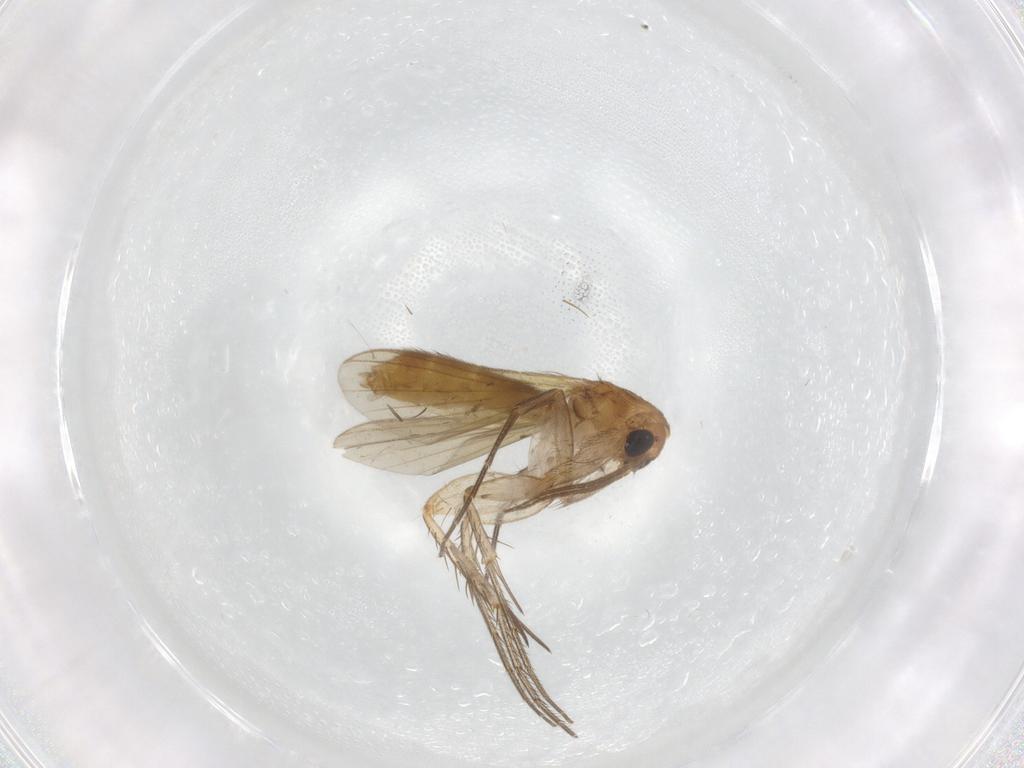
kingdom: Animalia
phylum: Arthropoda
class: Insecta
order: Diptera
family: Mycetophilidae
